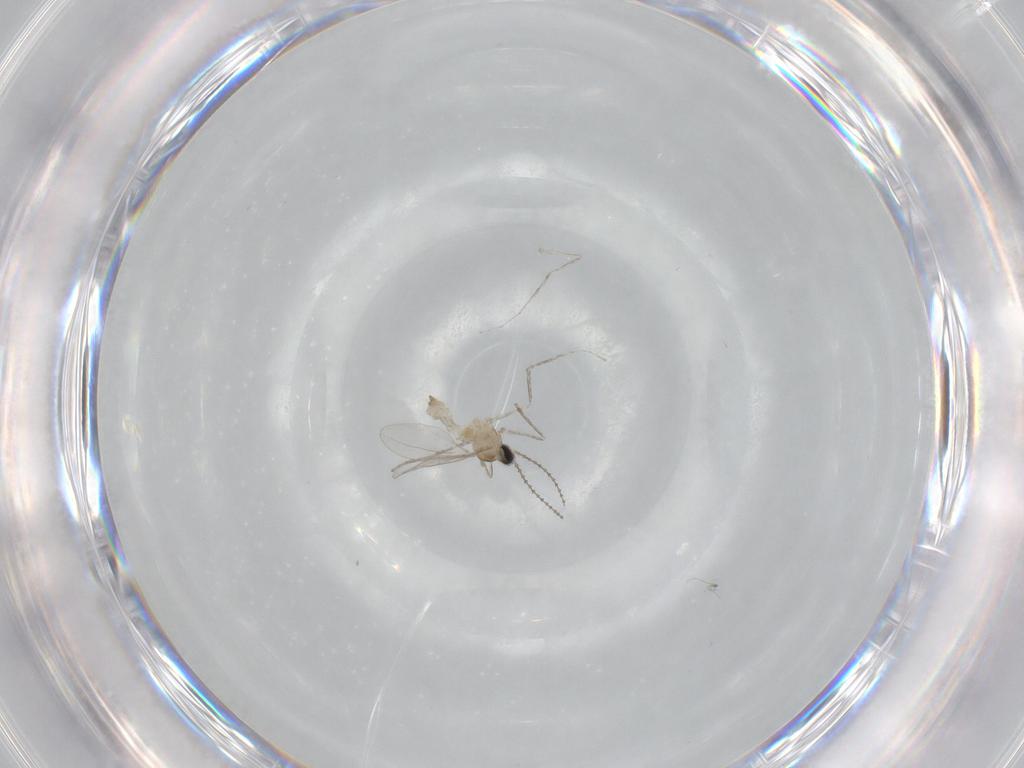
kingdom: Animalia
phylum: Arthropoda
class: Insecta
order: Diptera
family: Cecidomyiidae
